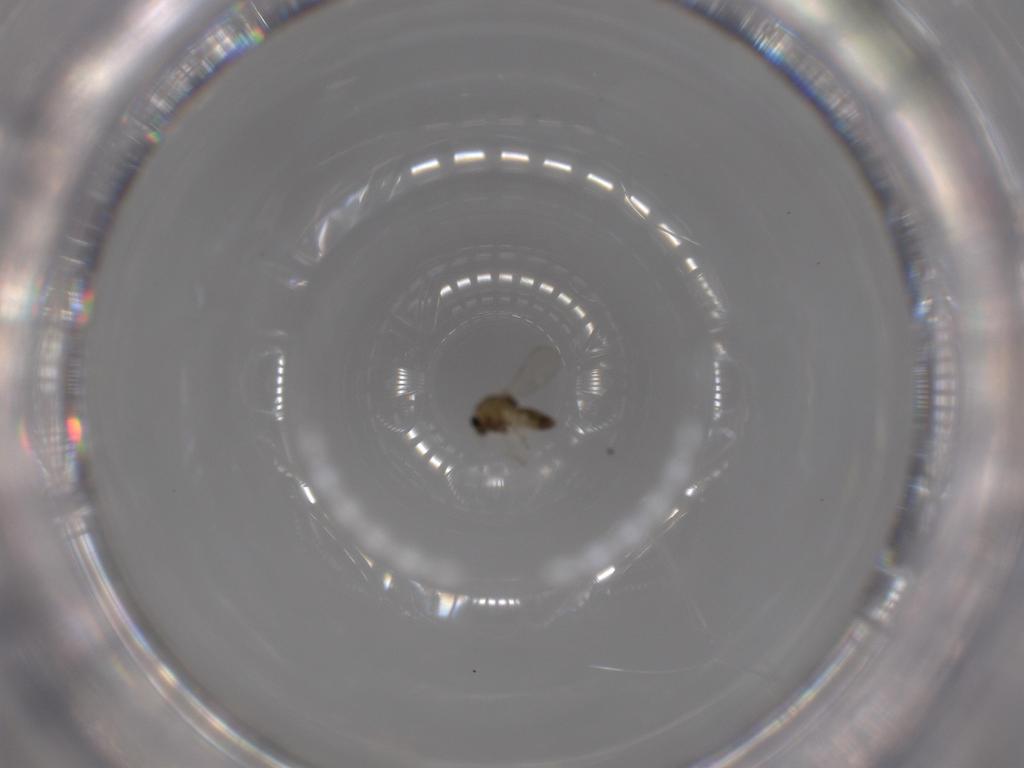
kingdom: Animalia
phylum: Arthropoda
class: Insecta
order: Diptera
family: Chironomidae
